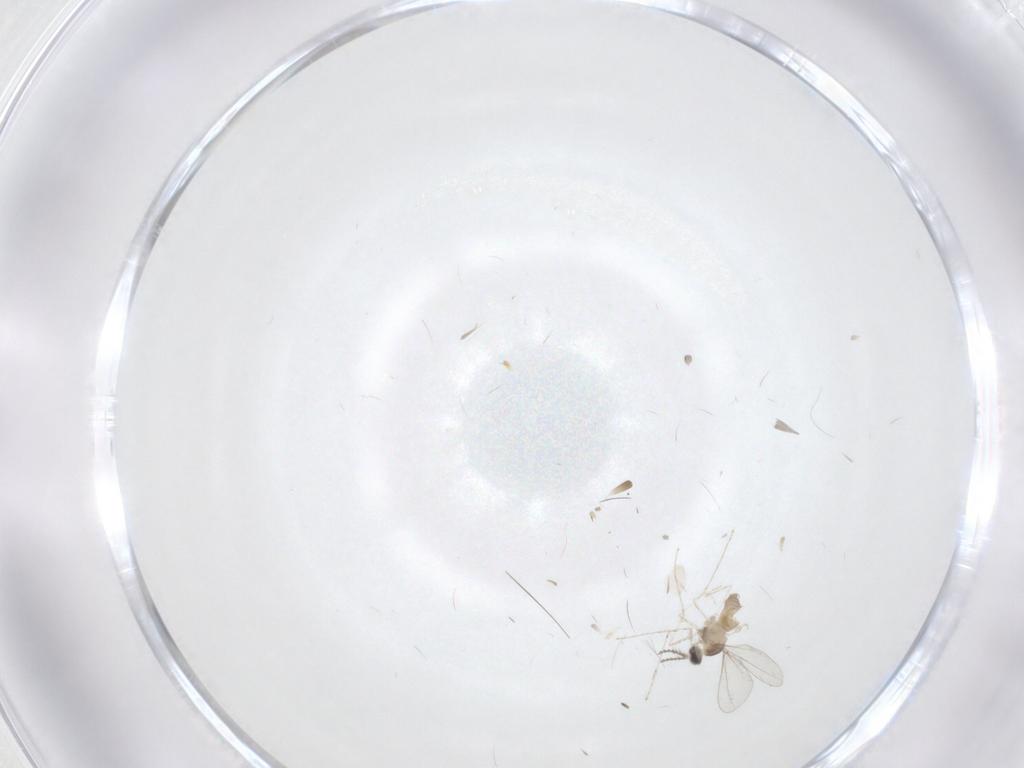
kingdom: Animalia
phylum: Arthropoda
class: Insecta
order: Diptera
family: Cecidomyiidae
